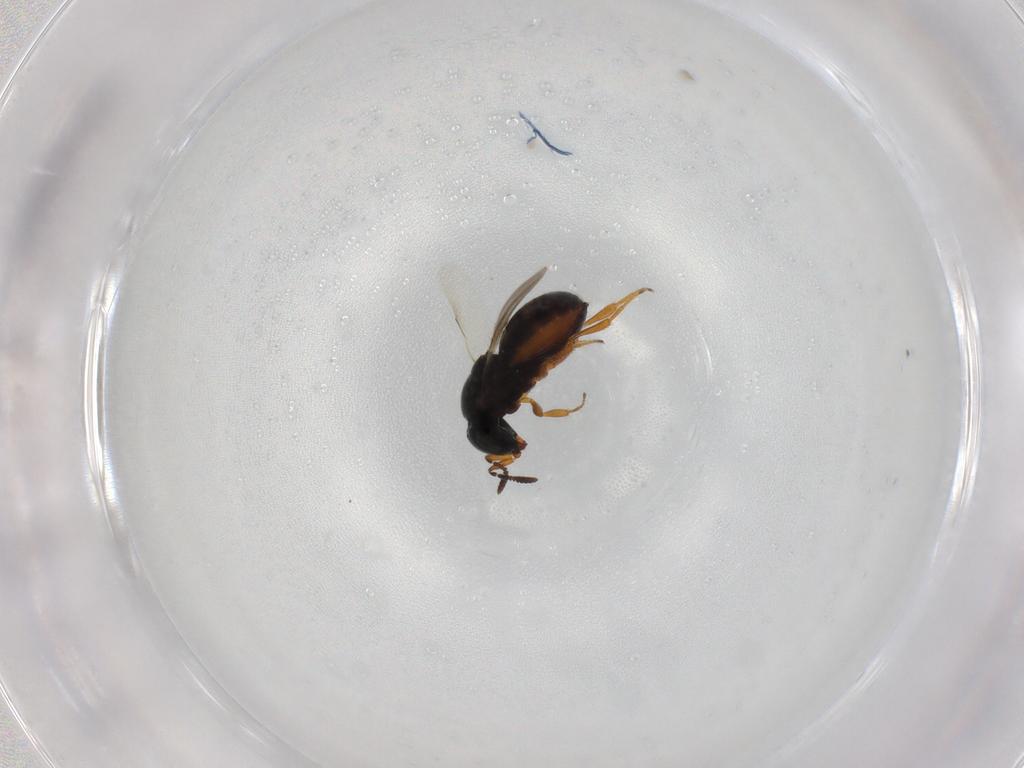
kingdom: Animalia
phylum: Arthropoda
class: Insecta
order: Hymenoptera
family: Scelionidae
